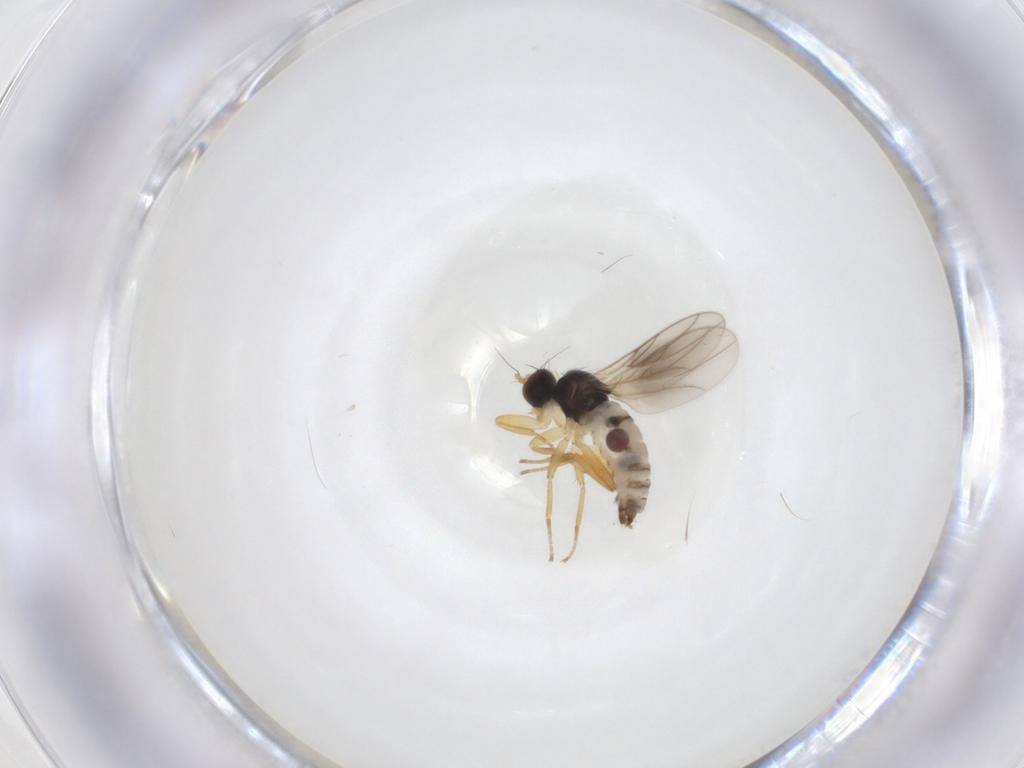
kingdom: Animalia
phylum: Arthropoda
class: Insecta
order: Diptera
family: Hybotidae
